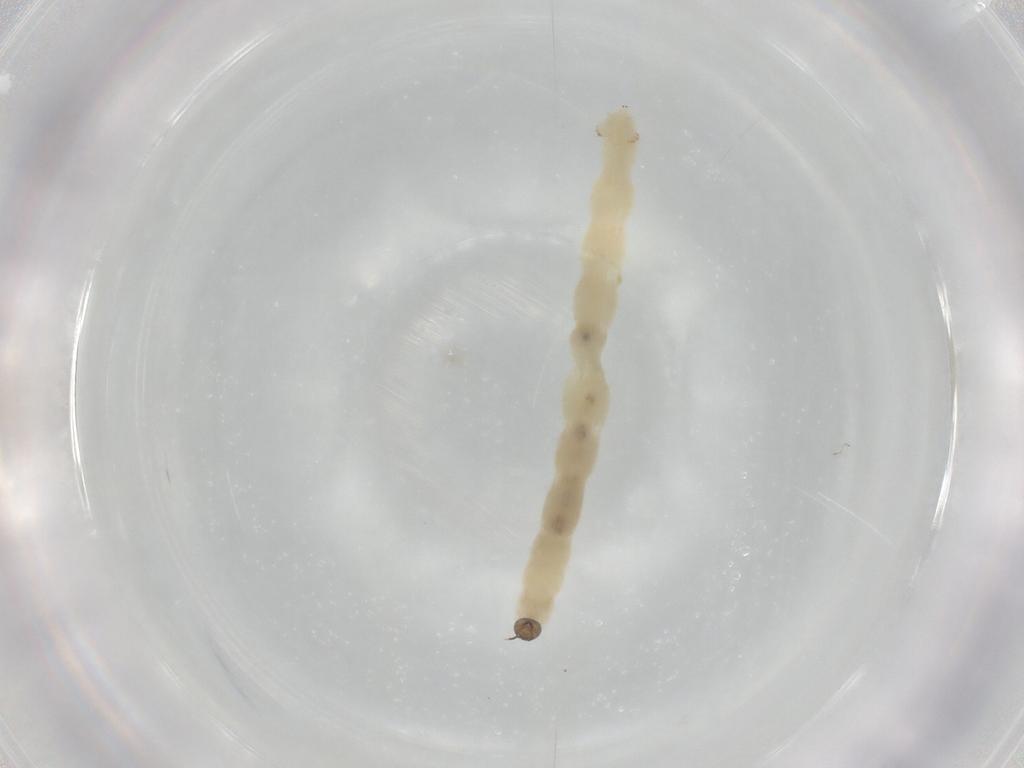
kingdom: Animalia
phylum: Arthropoda
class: Insecta
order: Diptera
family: Chironomidae
